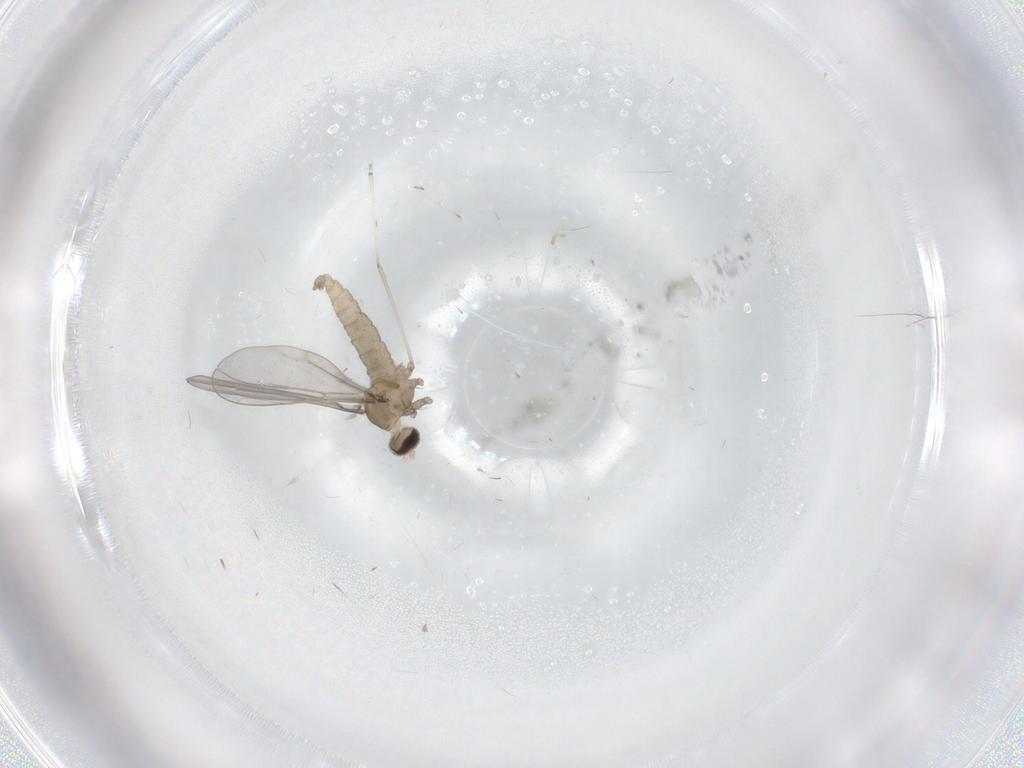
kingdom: Animalia
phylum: Arthropoda
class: Insecta
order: Diptera
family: Cecidomyiidae
